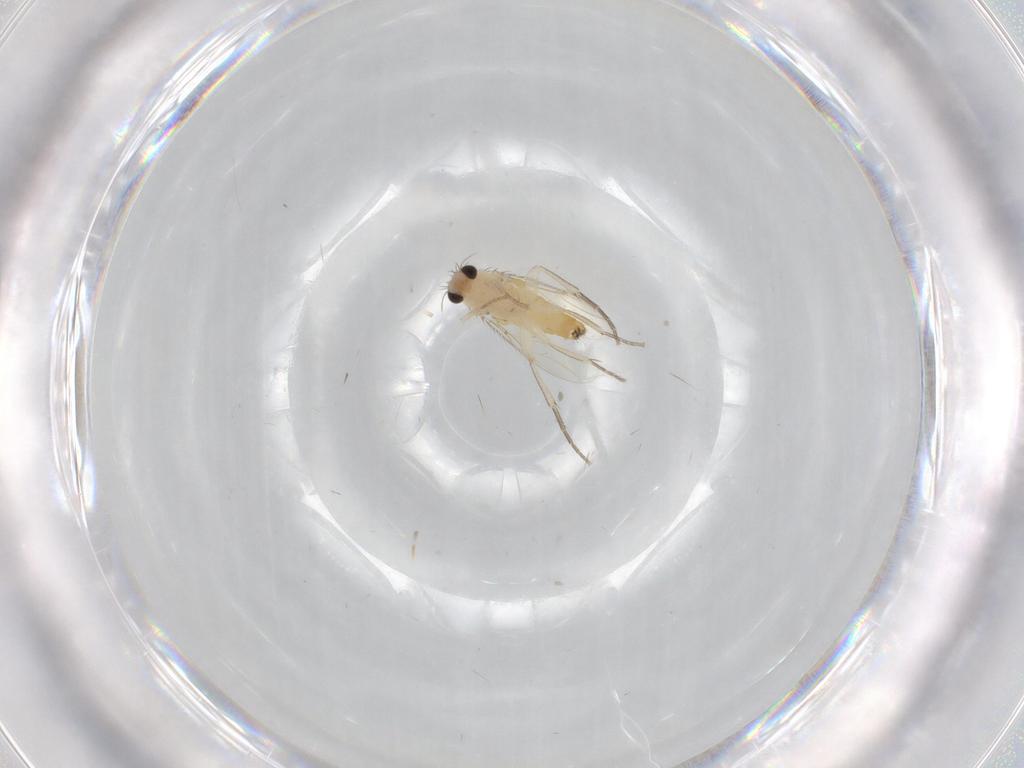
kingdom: Animalia
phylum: Arthropoda
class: Insecta
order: Diptera
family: Phoridae
